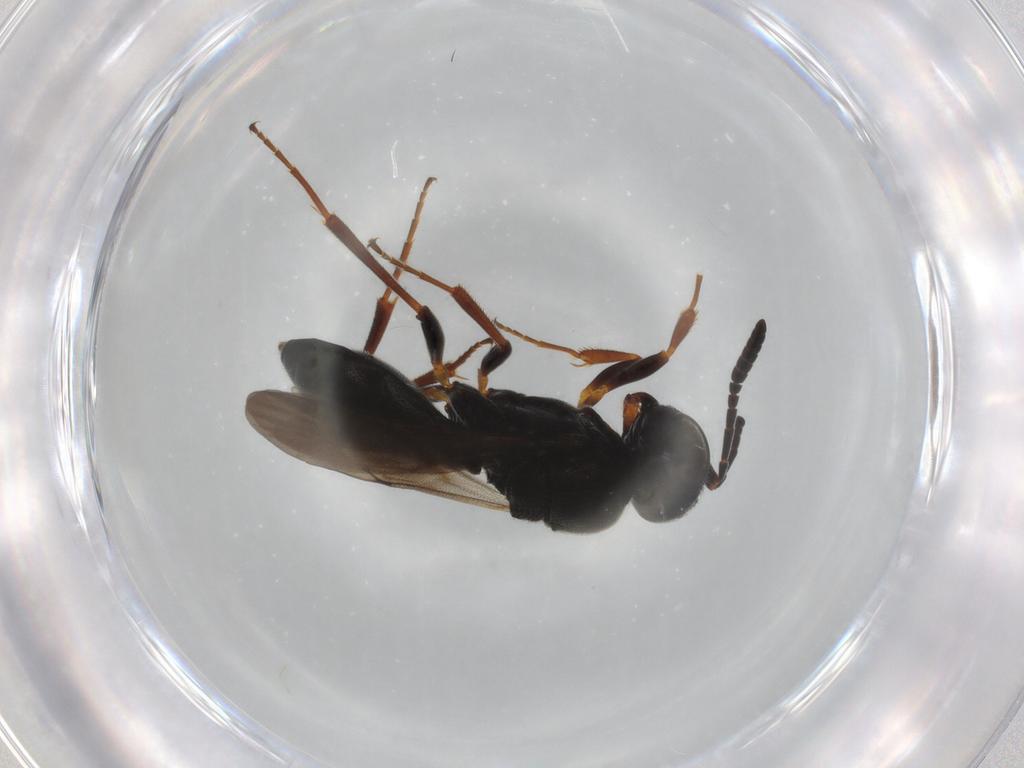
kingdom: Animalia
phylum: Arthropoda
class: Insecta
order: Hymenoptera
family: Scelionidae
